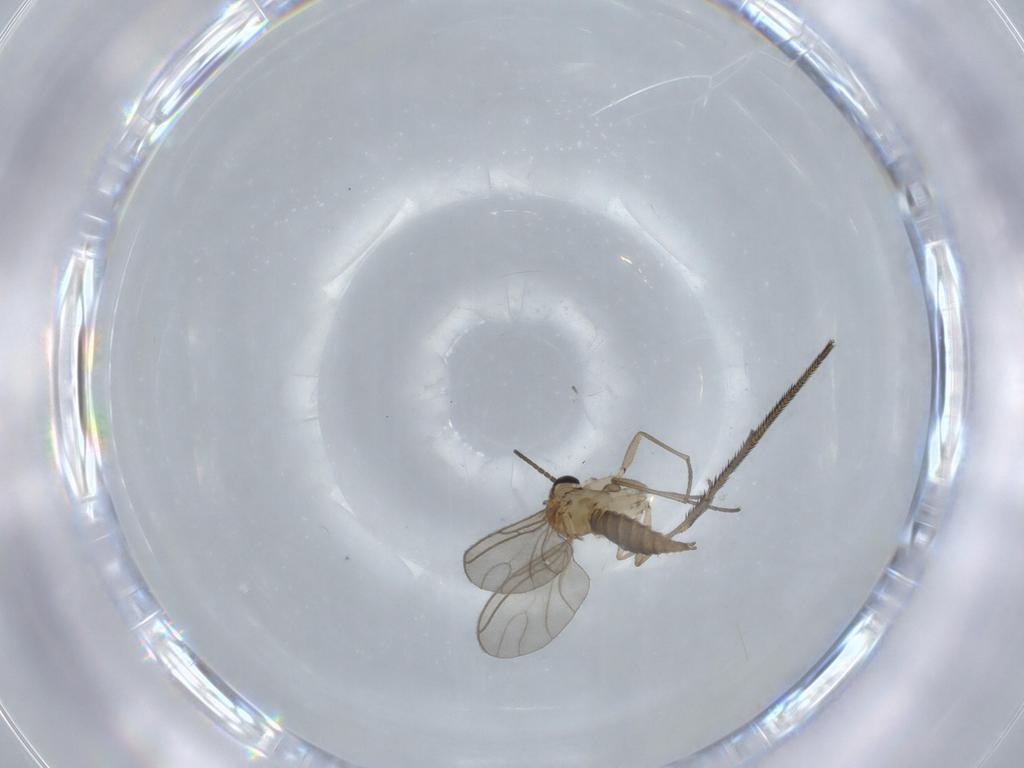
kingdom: Animalia
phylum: Arthropoda
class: Insecta
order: Diptera
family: Sciaridae
